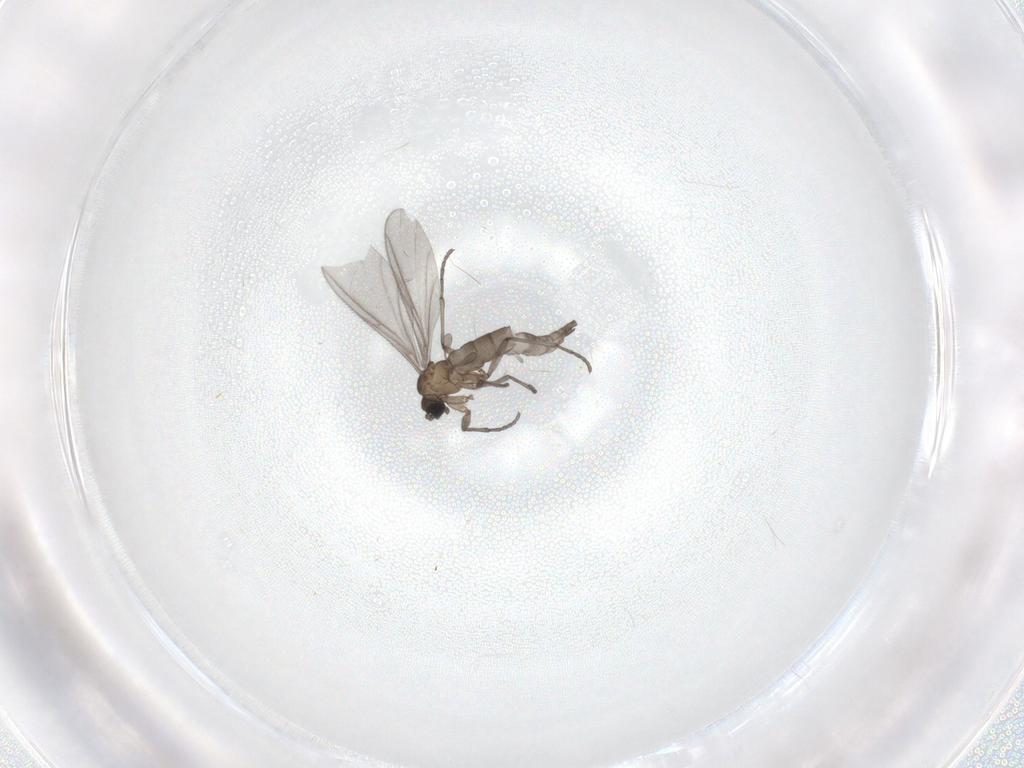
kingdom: Animalia
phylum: Arthropoda
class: Insecta
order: Diptera
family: Sciaridae
